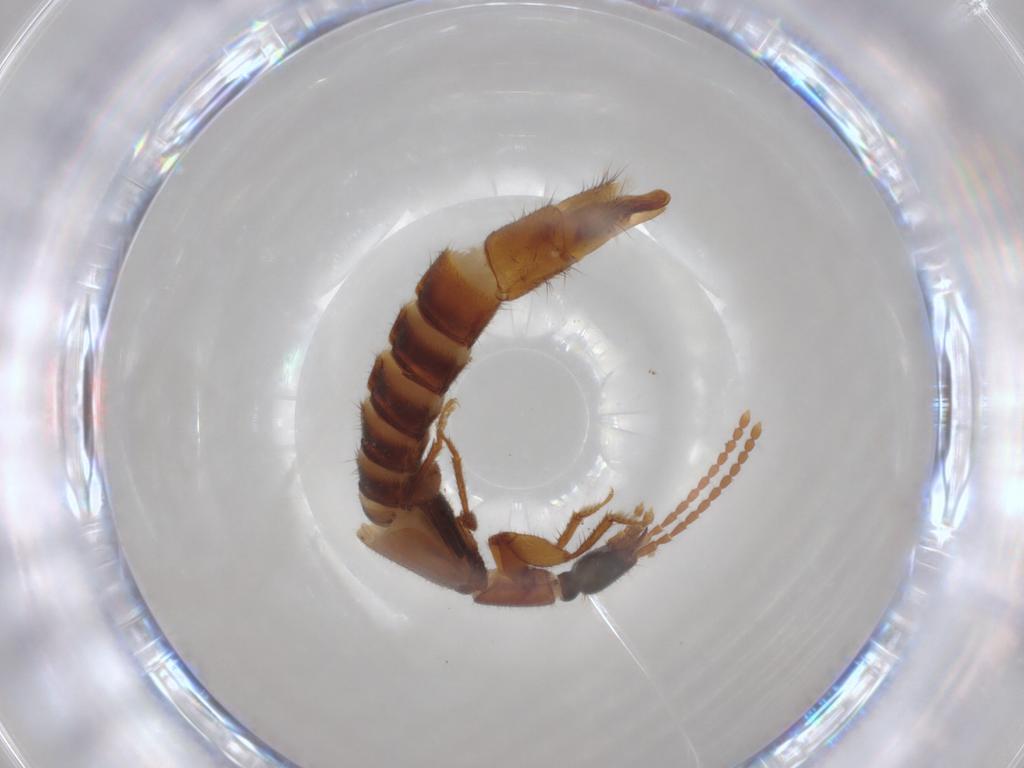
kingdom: Animalia
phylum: Arthropoda
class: Insecta
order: Coleoptera
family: Staphylinidae
